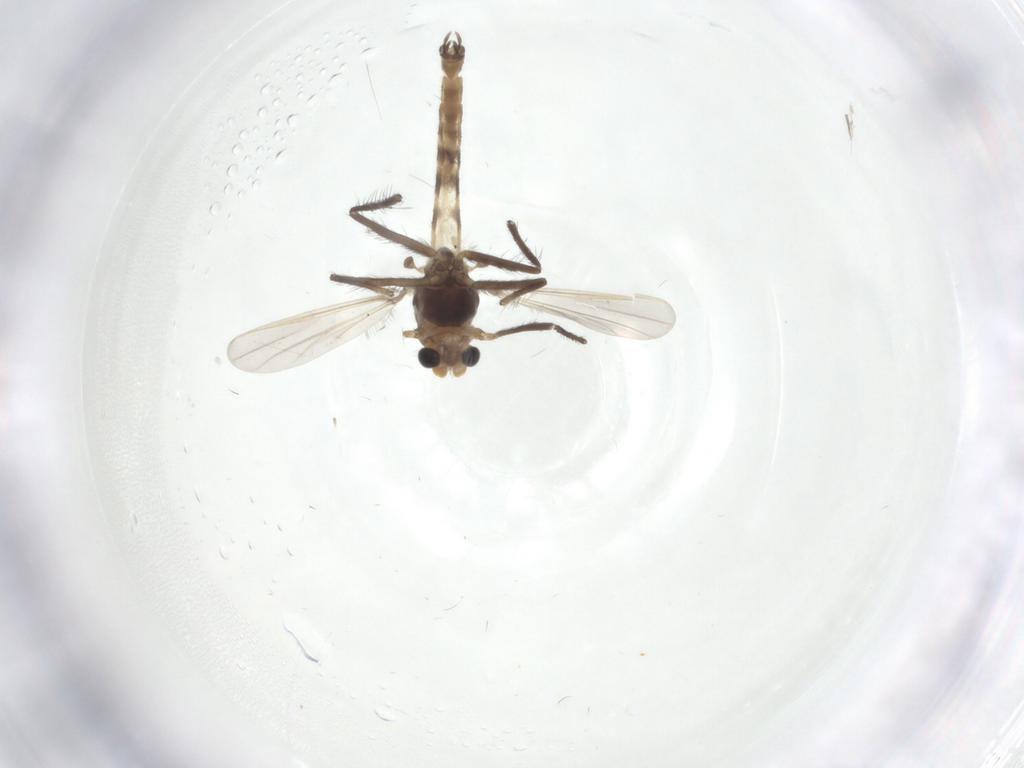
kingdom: Animalia
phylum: Arthropoda
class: Insecta
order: Diptera
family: Chironomidae
